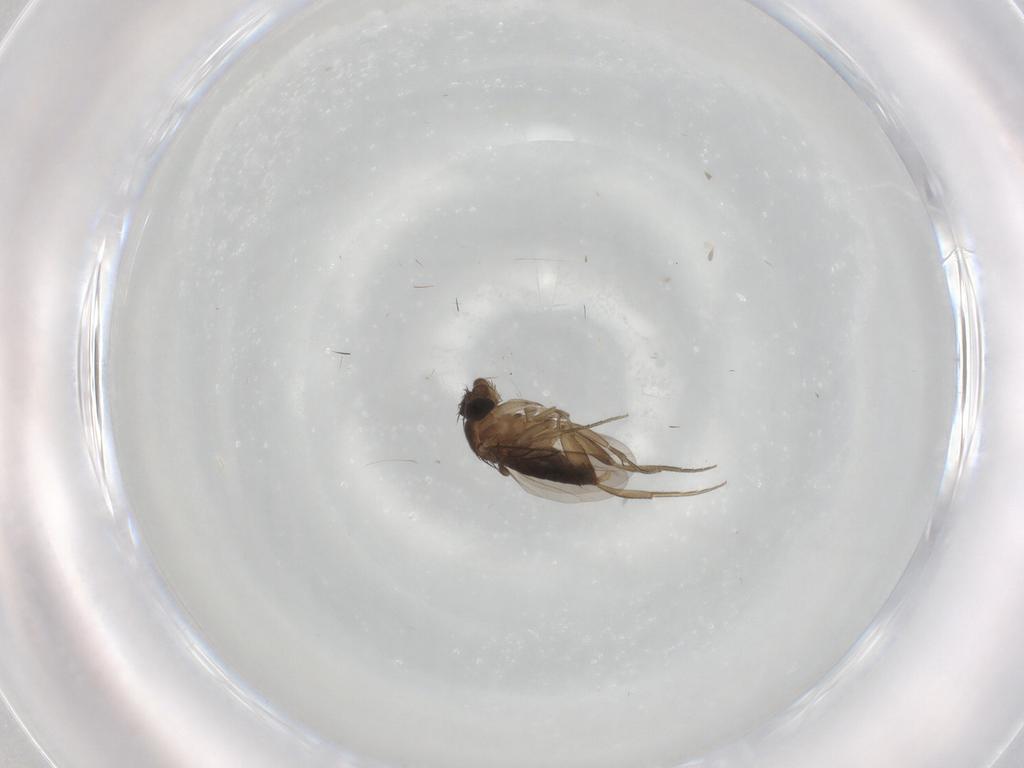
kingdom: Animalia
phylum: Arthropoda
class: Insecta
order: Diptera
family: Phoridae
